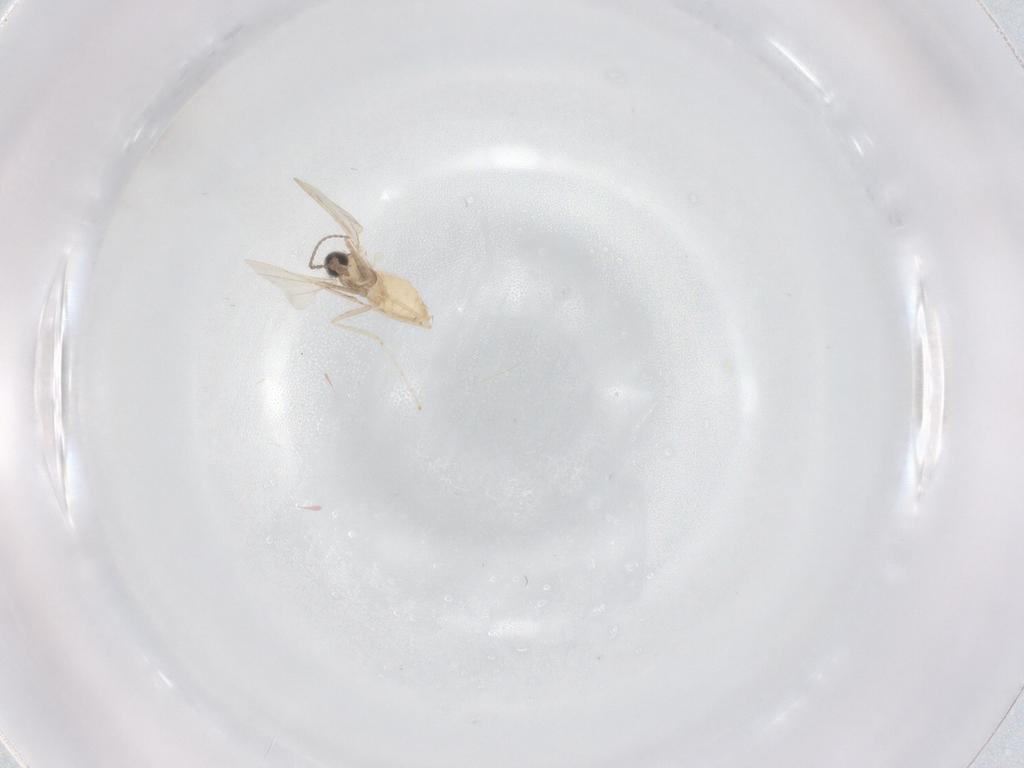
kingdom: Animalia
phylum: Arthropoda
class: Insecta
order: Diptera
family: Cecidomyiidae
